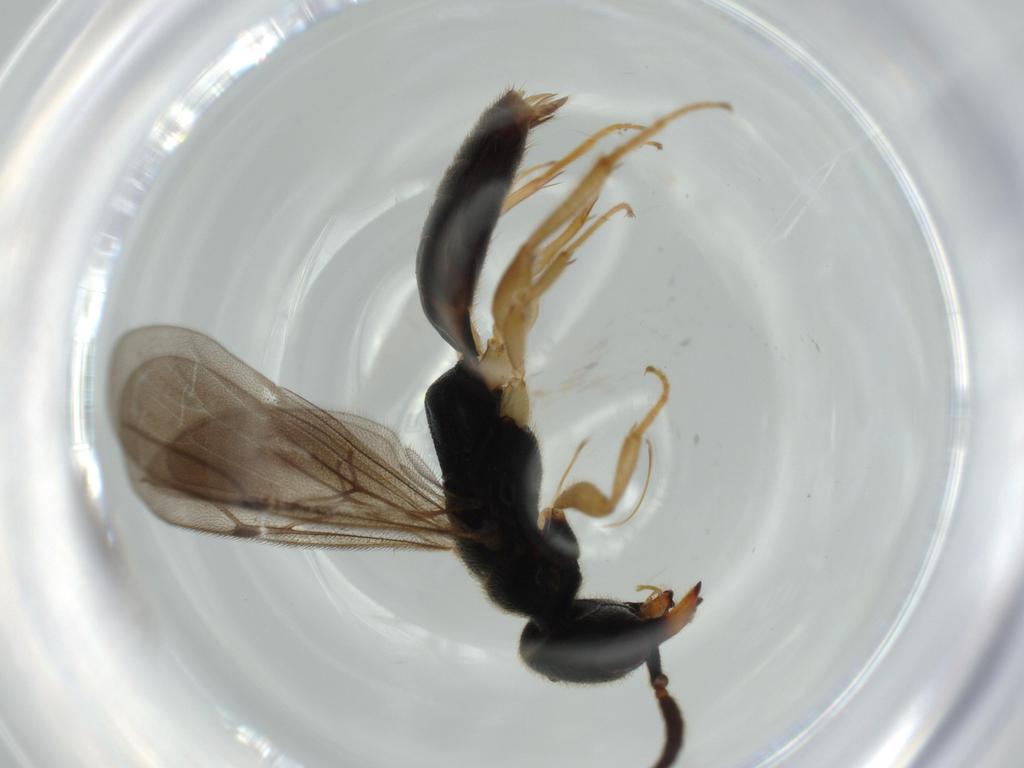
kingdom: Animalia
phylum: Arthropoda
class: Insecta
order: Hymenoptera
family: Bethylidae
